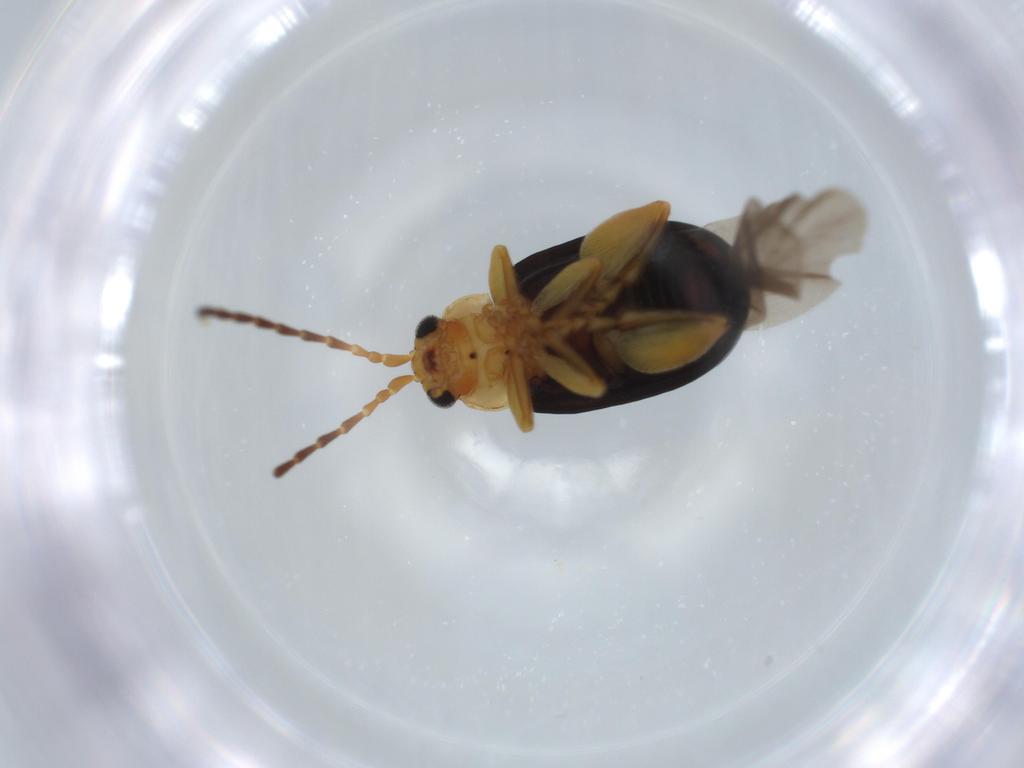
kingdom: Animalia
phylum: Arthropoda
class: Insecta
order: Coleoptera
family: Chrysomelidae
